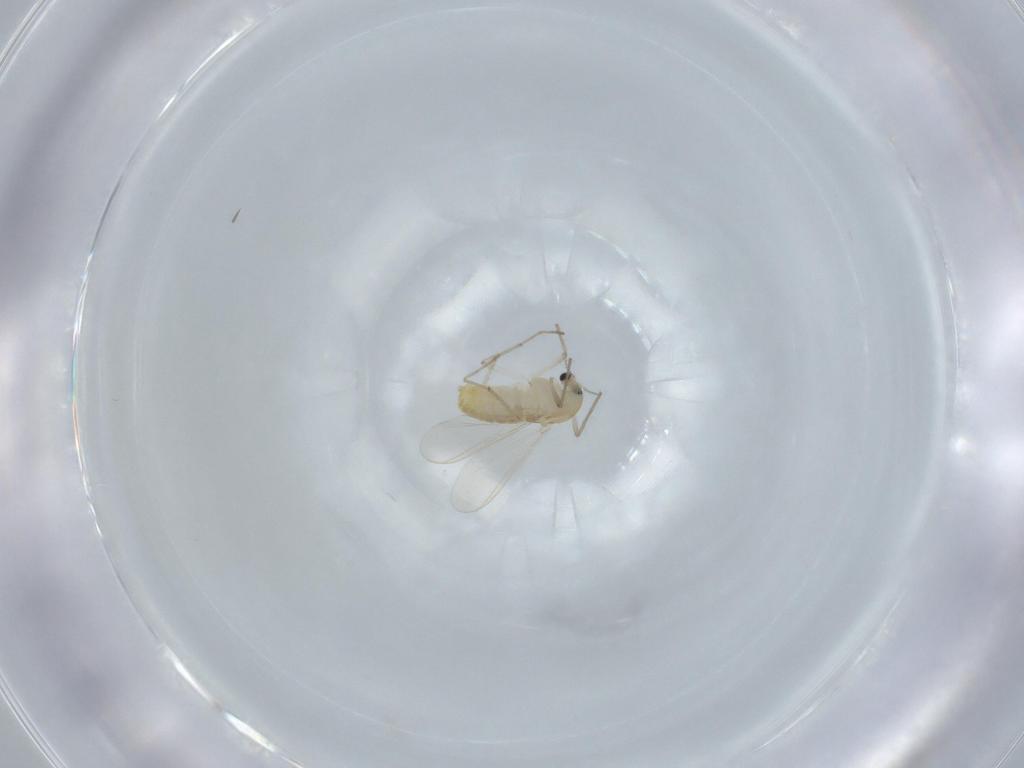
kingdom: Animalia
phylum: Arthropoda
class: Insecta
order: Diptera
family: Chironomidae
